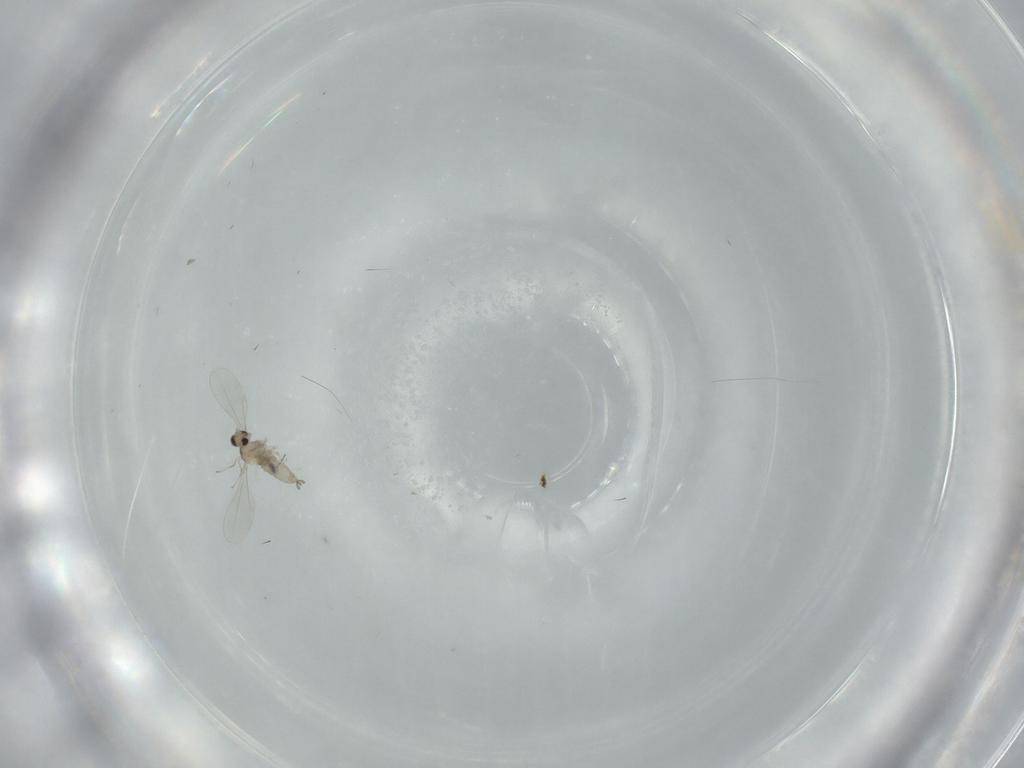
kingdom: Animalia
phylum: Arthropoda
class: Insecta
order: Diptera
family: Cecidomyiidae
